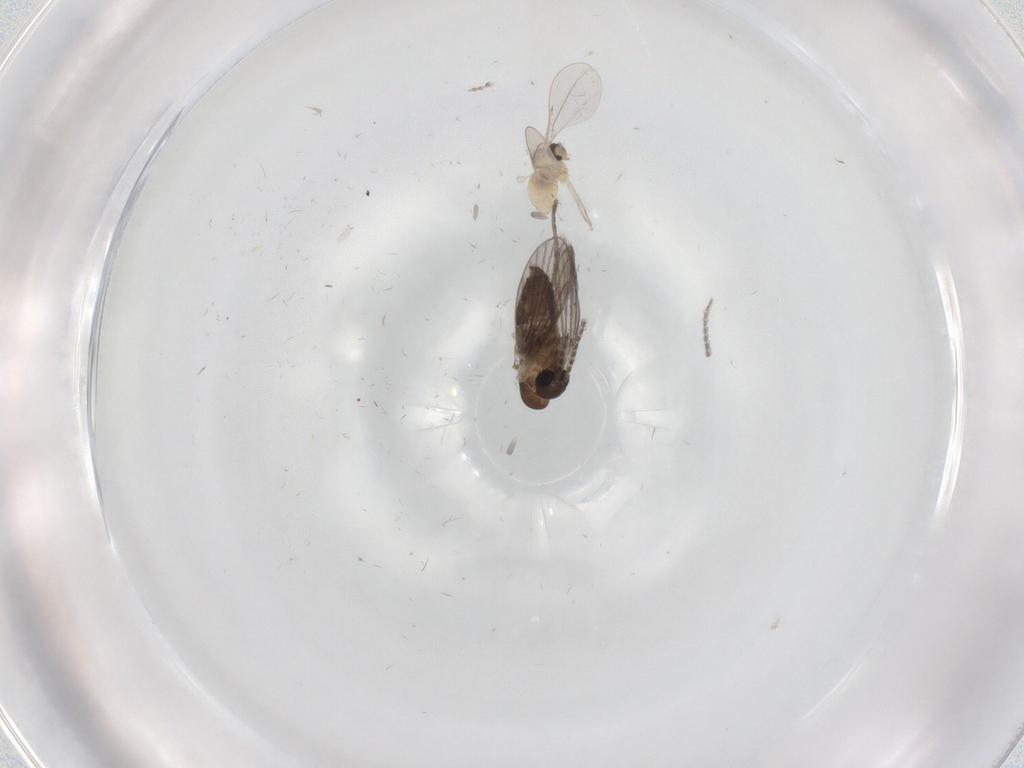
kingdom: Animalia
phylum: Arthropoda
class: Insecta
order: Diptera
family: Cecidomyiidae
